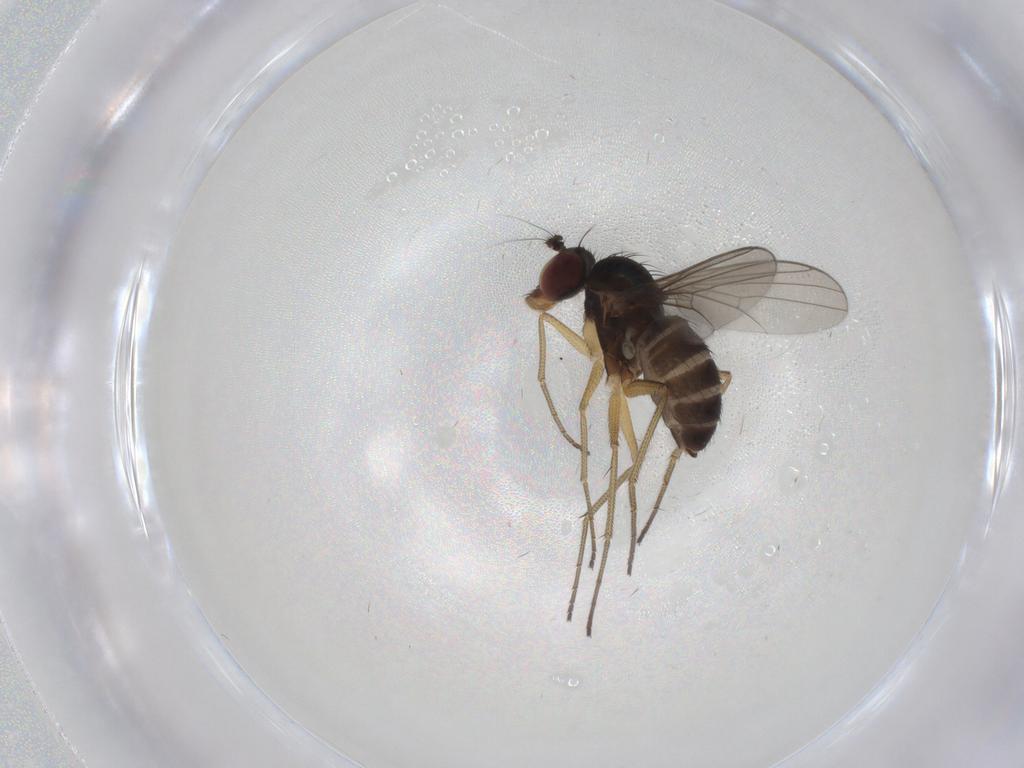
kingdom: Animalia
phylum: Arthropoda
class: Insecta
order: Diptera
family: Dolichopodidae
